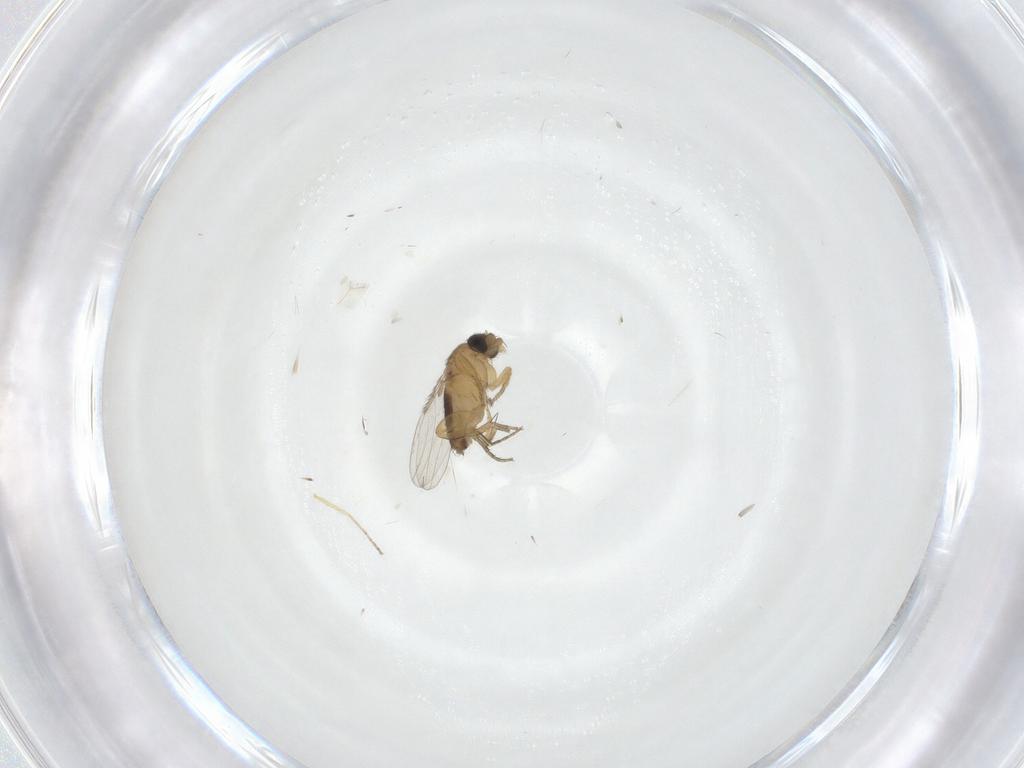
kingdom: Animalia
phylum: Arthropoda
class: Insecta
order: Diptera
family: Ceratopogonidae
